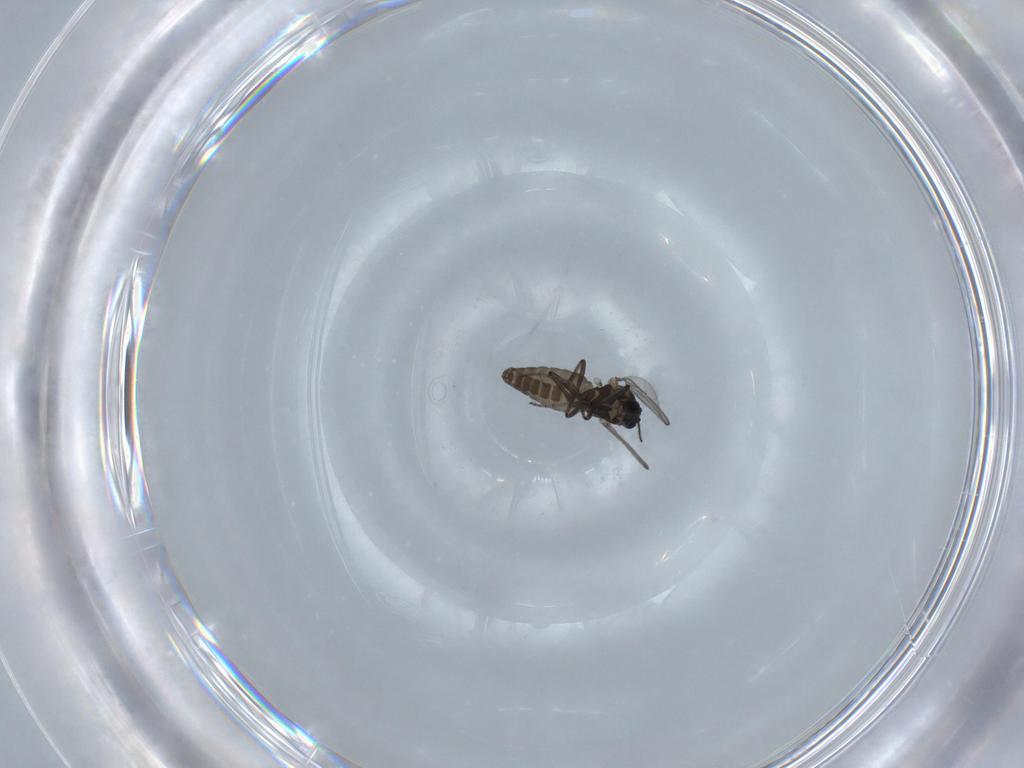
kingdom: Animalia
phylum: Arthropoda
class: Insecta
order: Diptera
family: Ceratopogonidae
